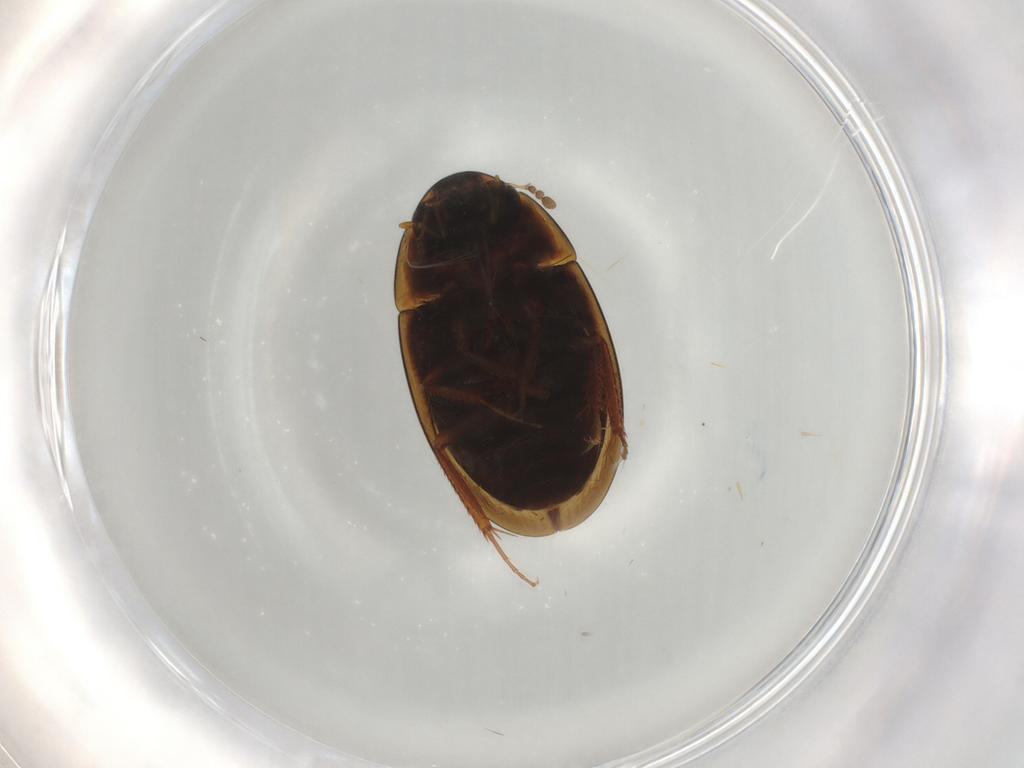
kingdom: Animalia
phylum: Arthropoda
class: Insecta
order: Coleoptera
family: Hydrophilidae
